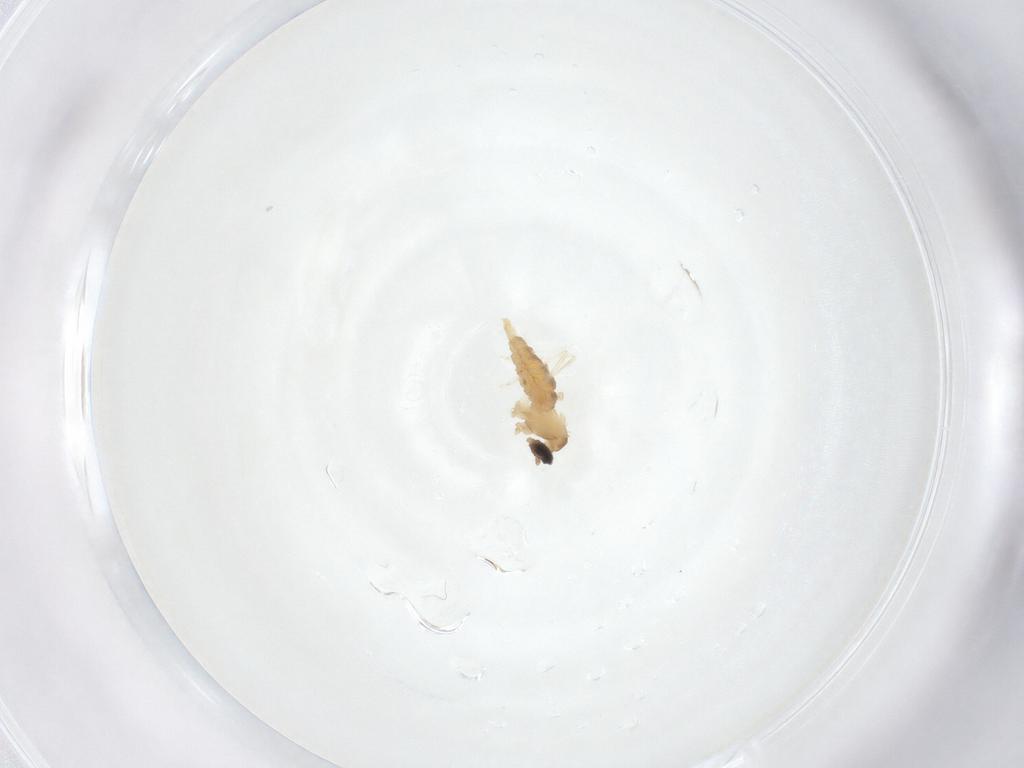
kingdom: Animalia
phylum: Arthropoda
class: Insecta
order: Diptera
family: Cecidomyiidae
